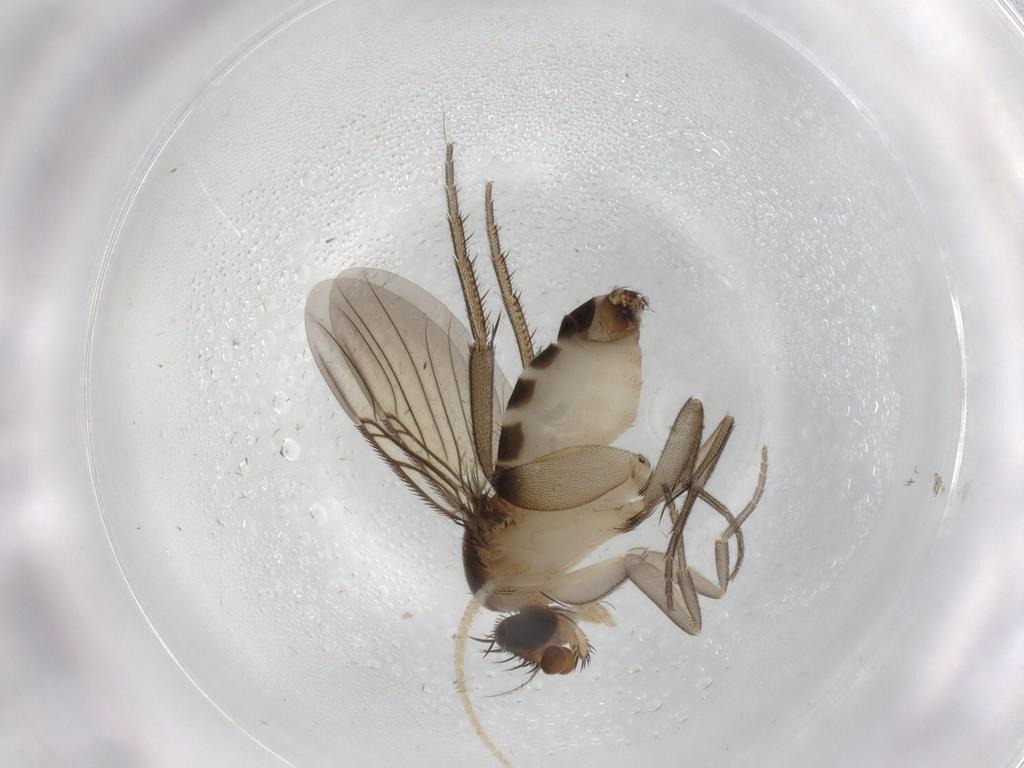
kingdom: Animalia
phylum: Arthropoda
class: Insecta
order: Diptera
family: Phoridae
